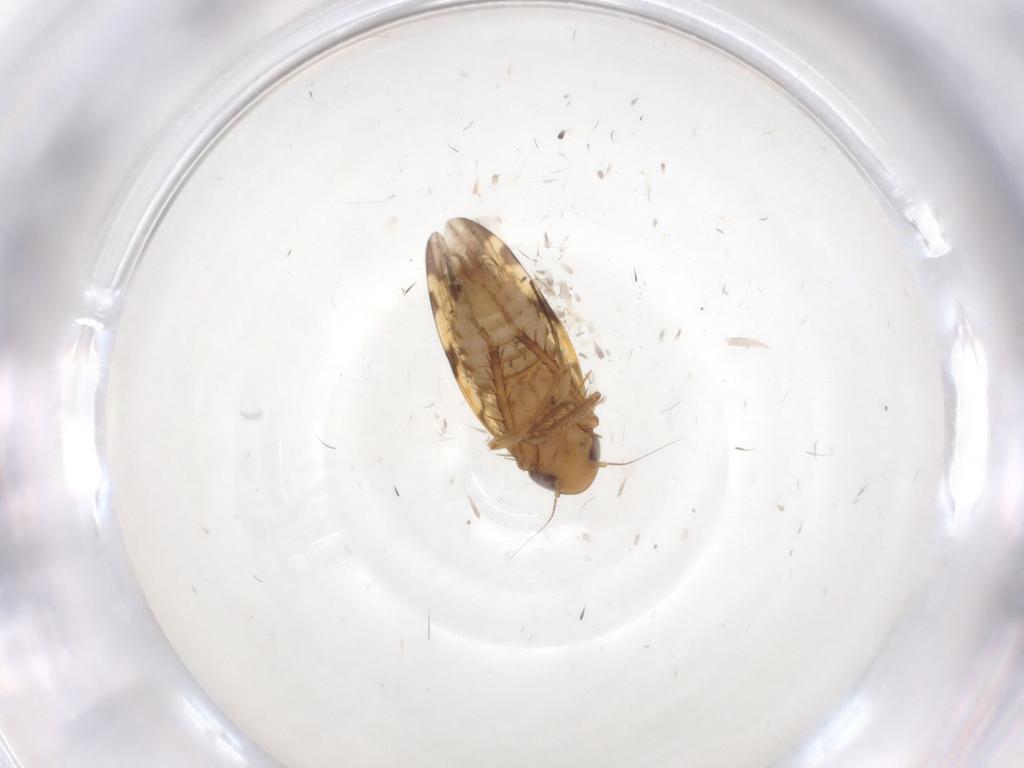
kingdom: Animalia
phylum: Arthropoda
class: Insecta
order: Hemiptera
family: Cicadellidae
